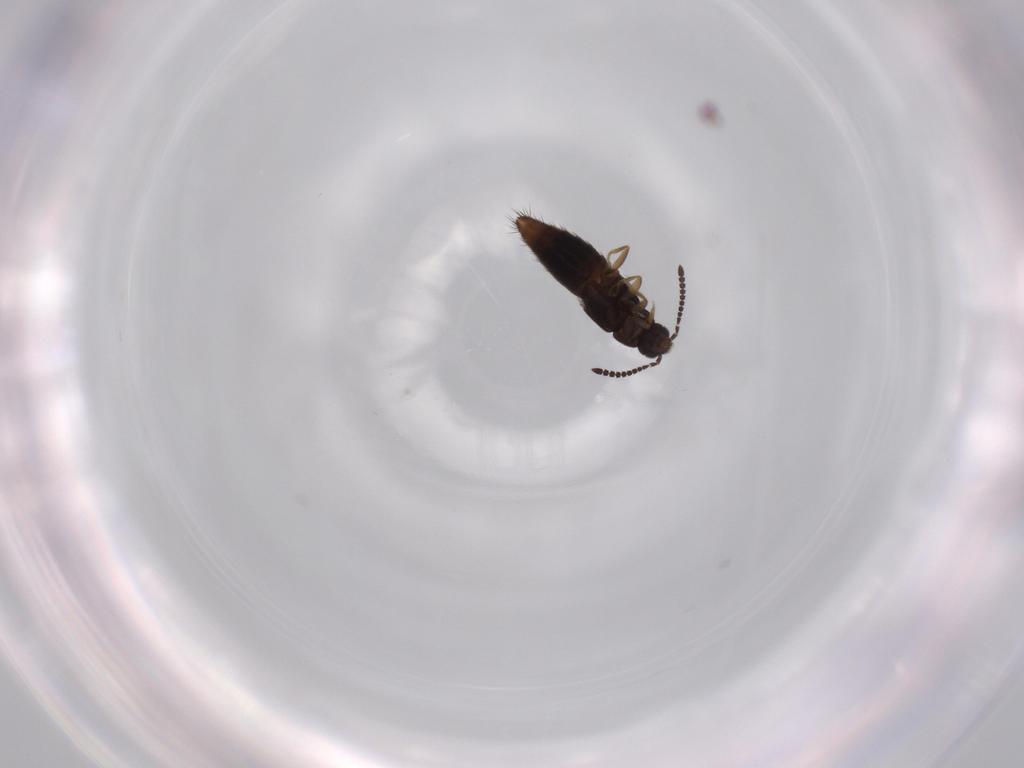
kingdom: Animalia
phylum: Arthropoda
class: Insecta
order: Coleoptera
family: Staphylinidae
